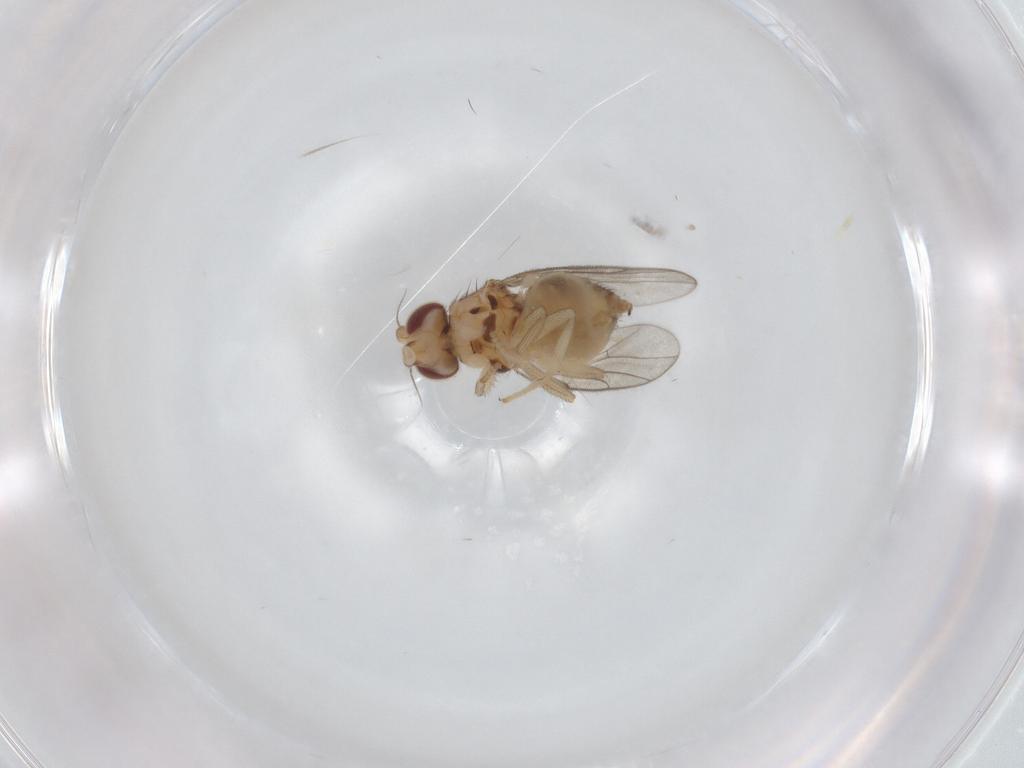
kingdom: Animalia
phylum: Arthropoda
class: Insecta
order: Diptera
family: Chloropidae
